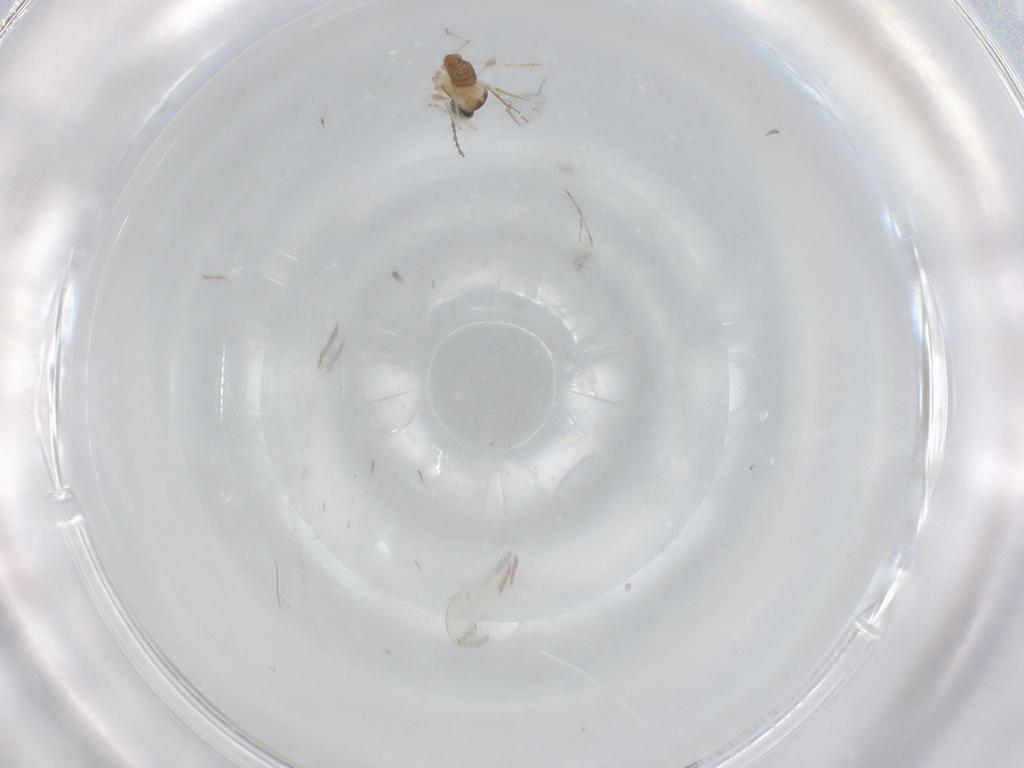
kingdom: Animalia
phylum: Arthropoda
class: Insecta
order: Diptera
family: Cecidomyiidae
